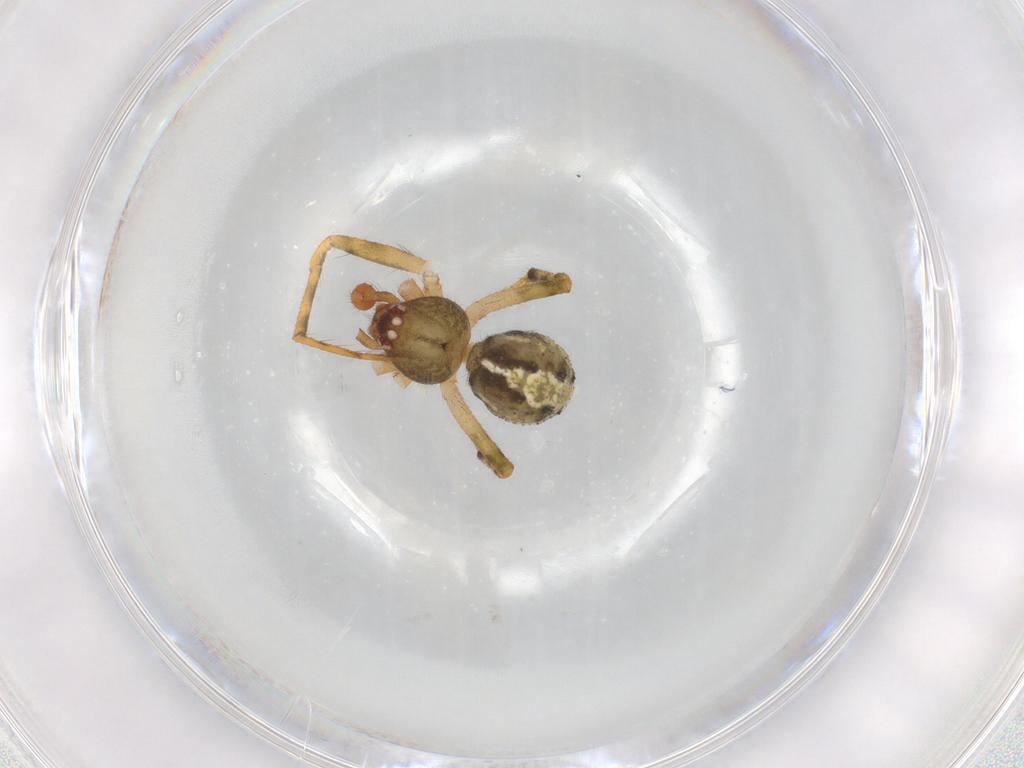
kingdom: Animalia
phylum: Arthropoda
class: Arachnida
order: Araneae
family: Theridiidae
